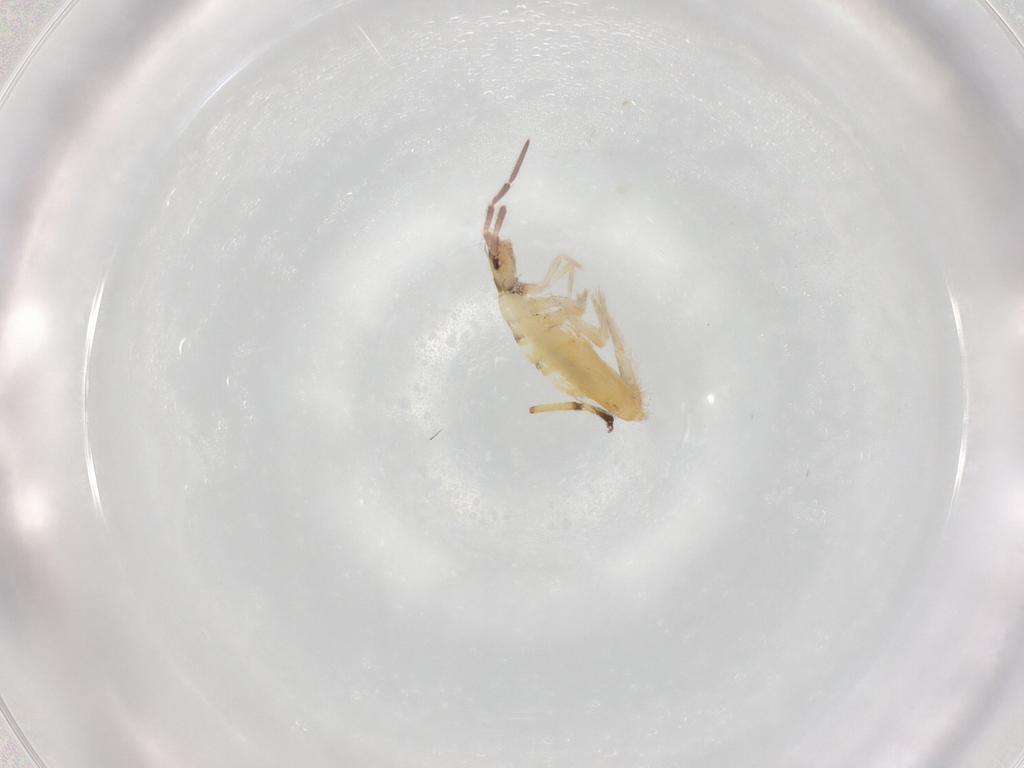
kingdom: Animalia
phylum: Arthropoda
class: Collembola
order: Entomobryomorpha
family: Entomobryidae
